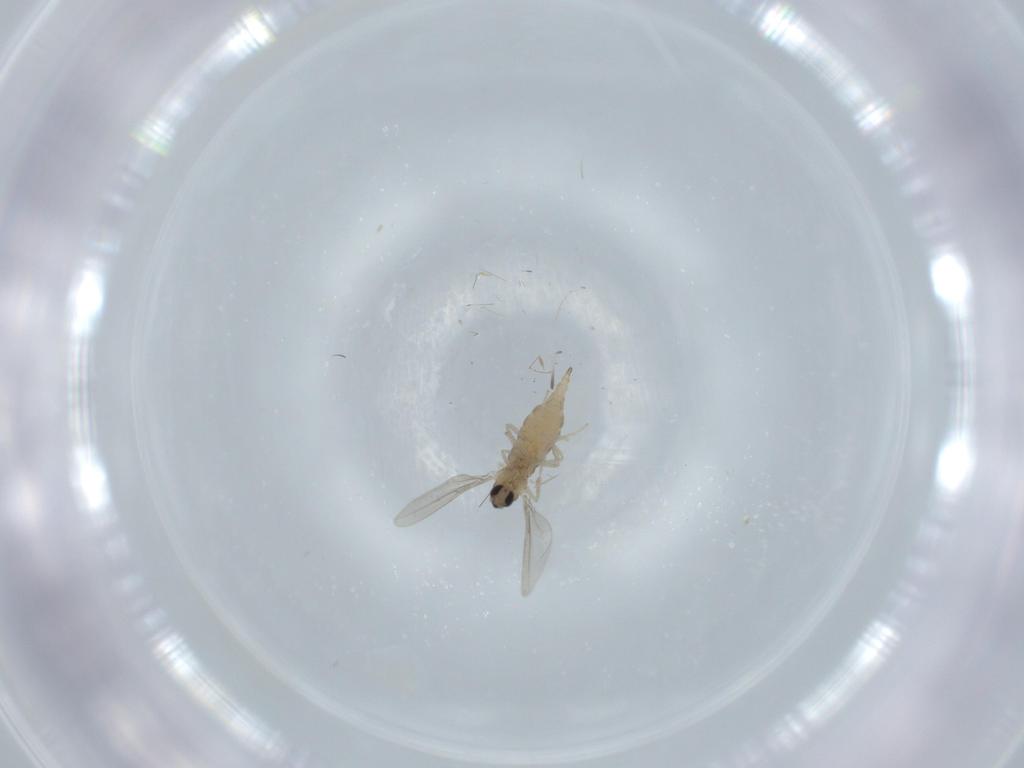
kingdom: Animalia
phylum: Arthropoda
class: Insecta
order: Diptera
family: Cecidomyiidae
